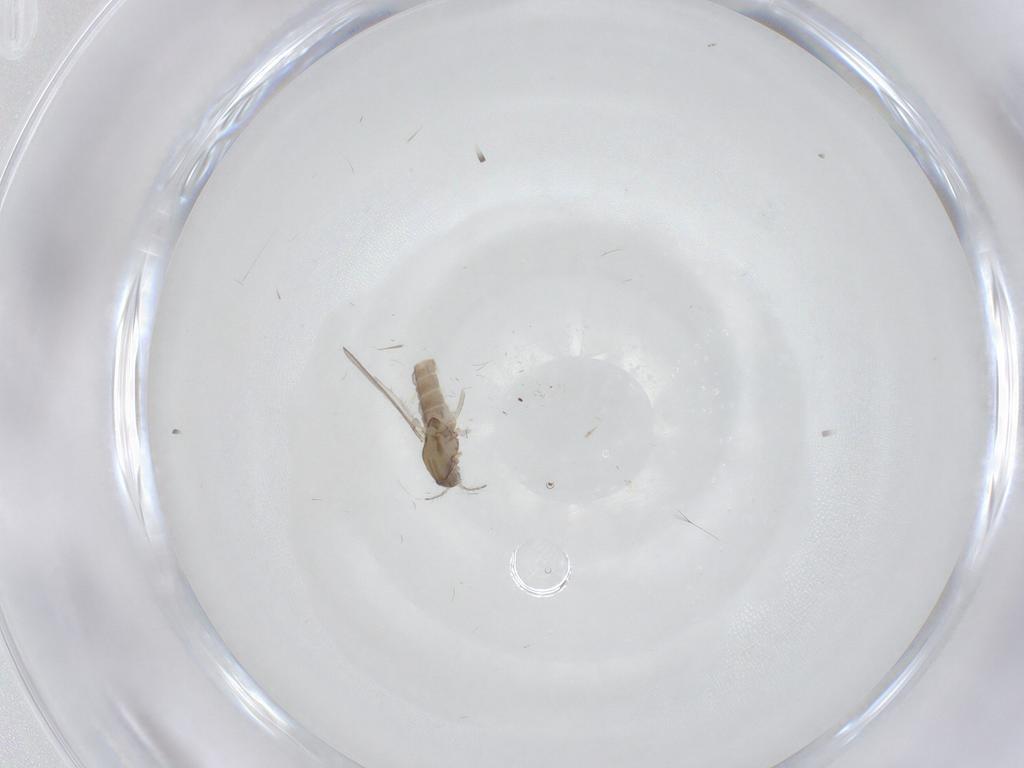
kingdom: Animalia
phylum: Arthropoda
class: Insecta
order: Diptera
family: Chironomidae
